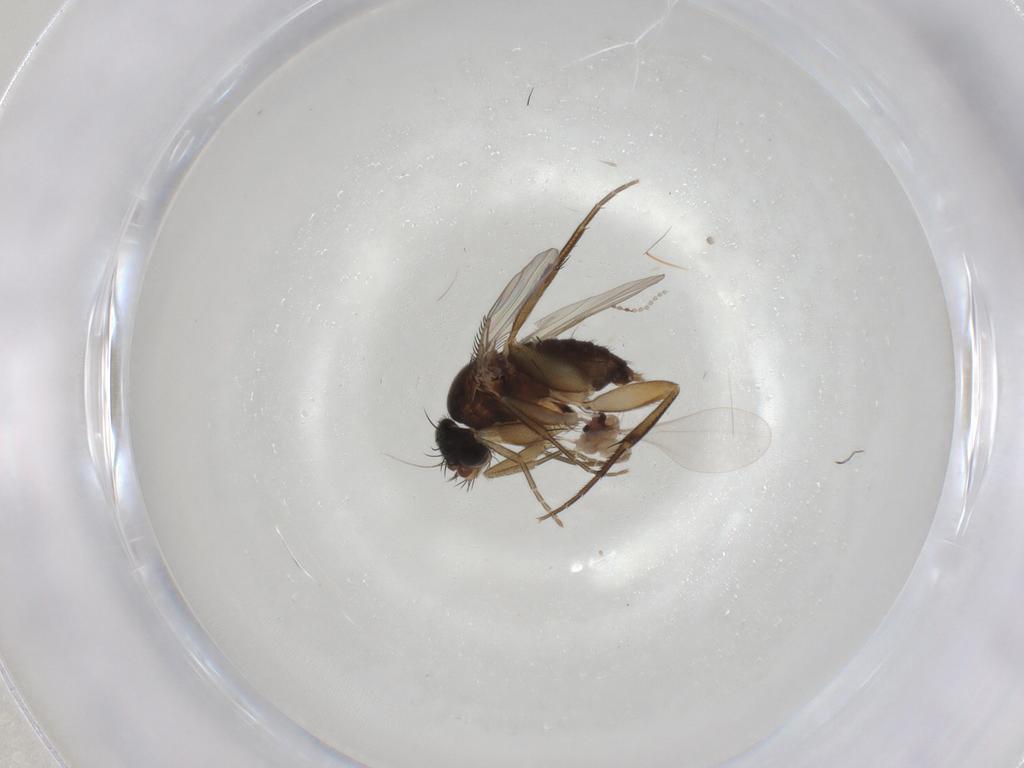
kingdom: Animalia
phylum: Arthropoda
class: Insecta
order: Diptera
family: Phoridae
